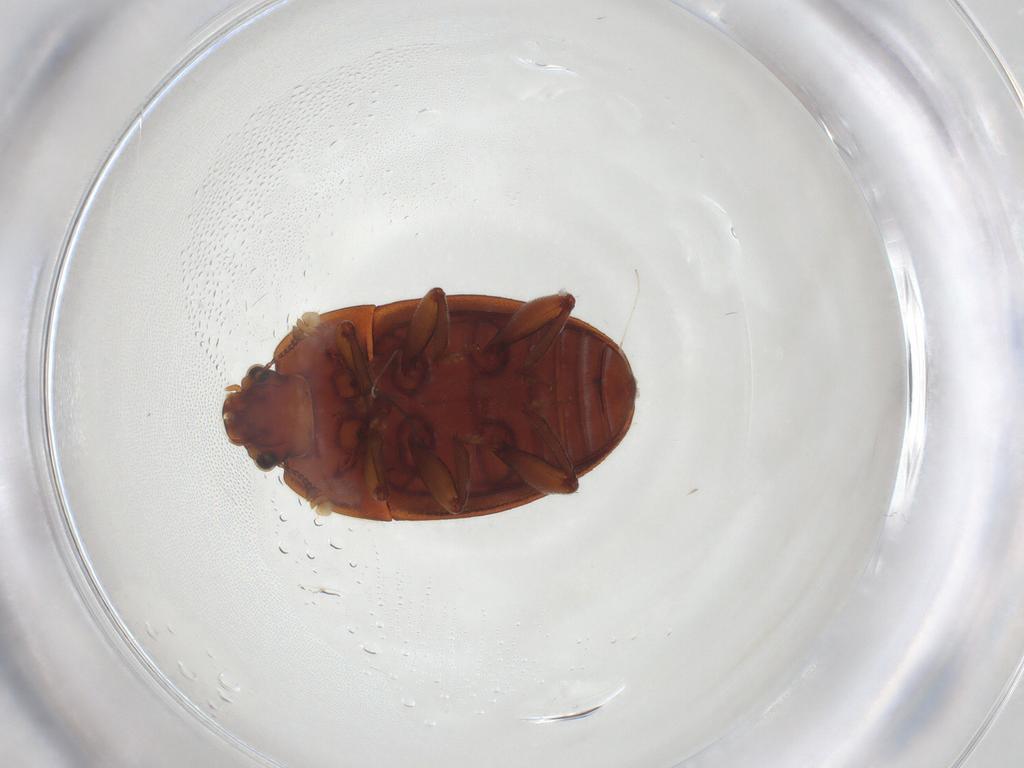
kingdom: Animalia
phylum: Arthropoda
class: Insecta
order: Coleoptera
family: Nitidulidae
